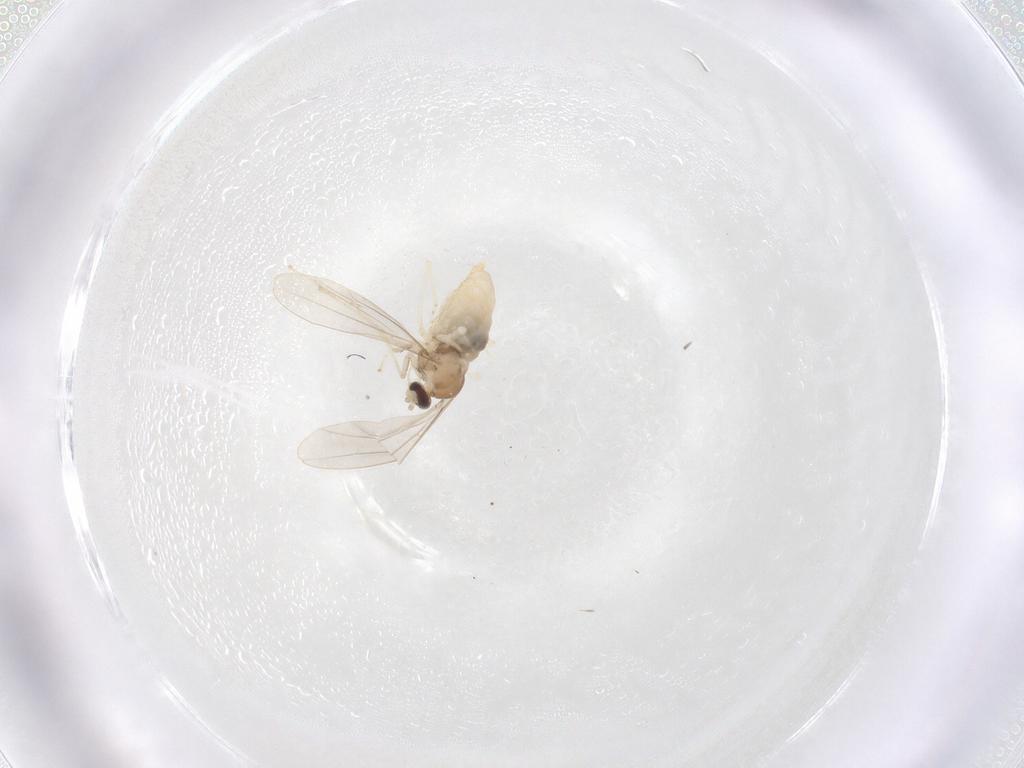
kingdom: Animalia
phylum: Arthropoda
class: Insecta
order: Diptera
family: Cecidomyiidae
